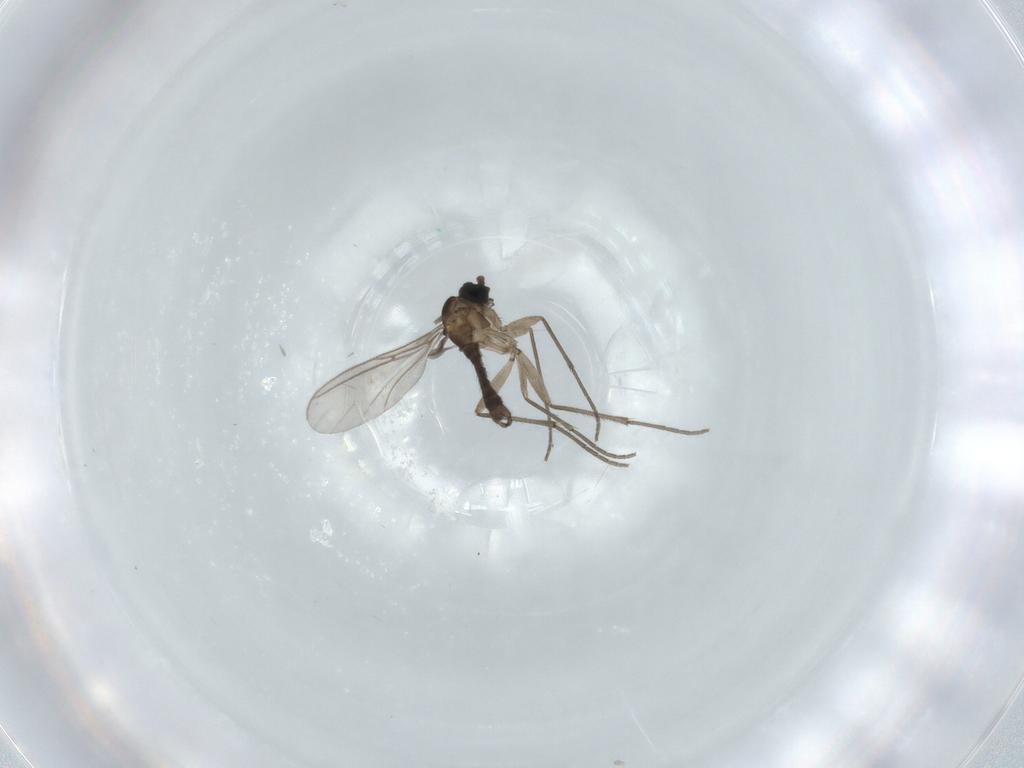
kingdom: Animalia
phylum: Arthropoda
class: Insecta
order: Diptera
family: Sciaridae
